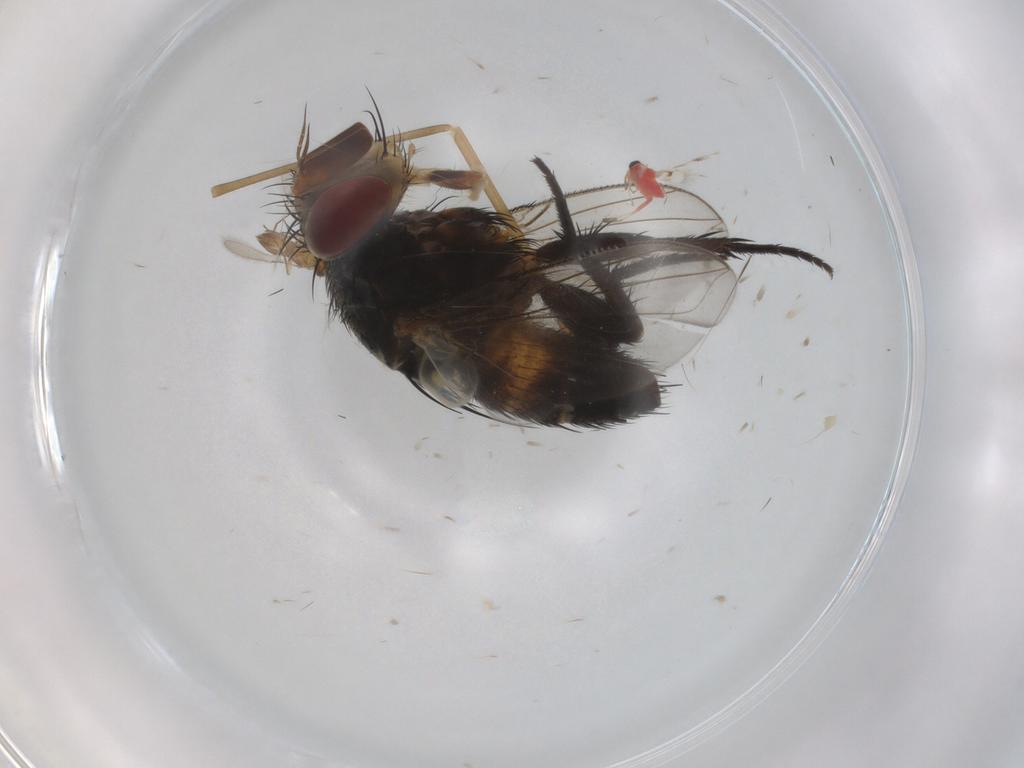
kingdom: Animalia
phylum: Arthropoda
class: Insecta
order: Diptera
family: Cecidomyiidae
